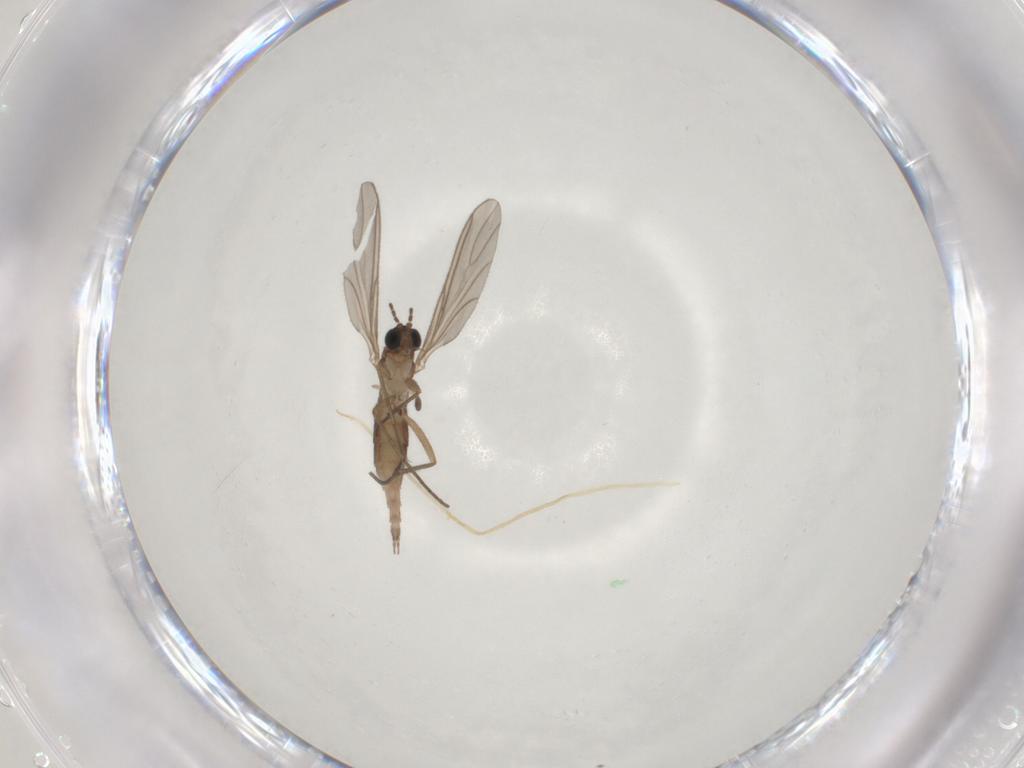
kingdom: Animalia
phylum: Arthropoda
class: Insecta
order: Diptera
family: Sciaridae
